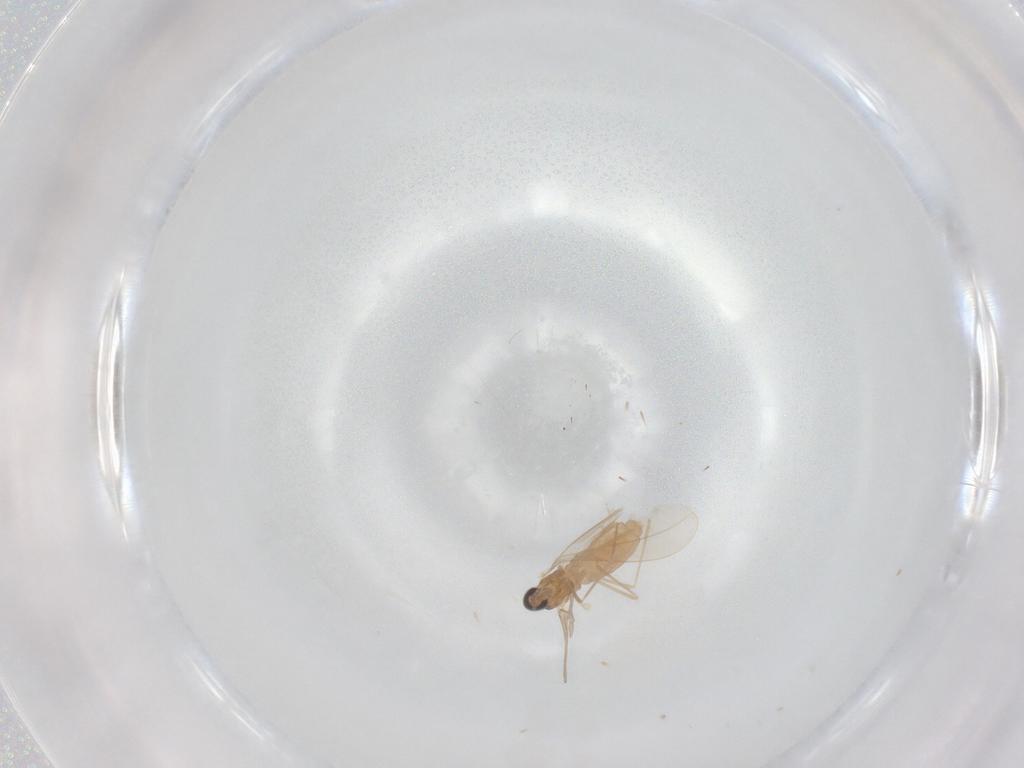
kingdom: Animalia
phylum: Arthropoda
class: Insecta
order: Diptera
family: Cecidomyiidae
